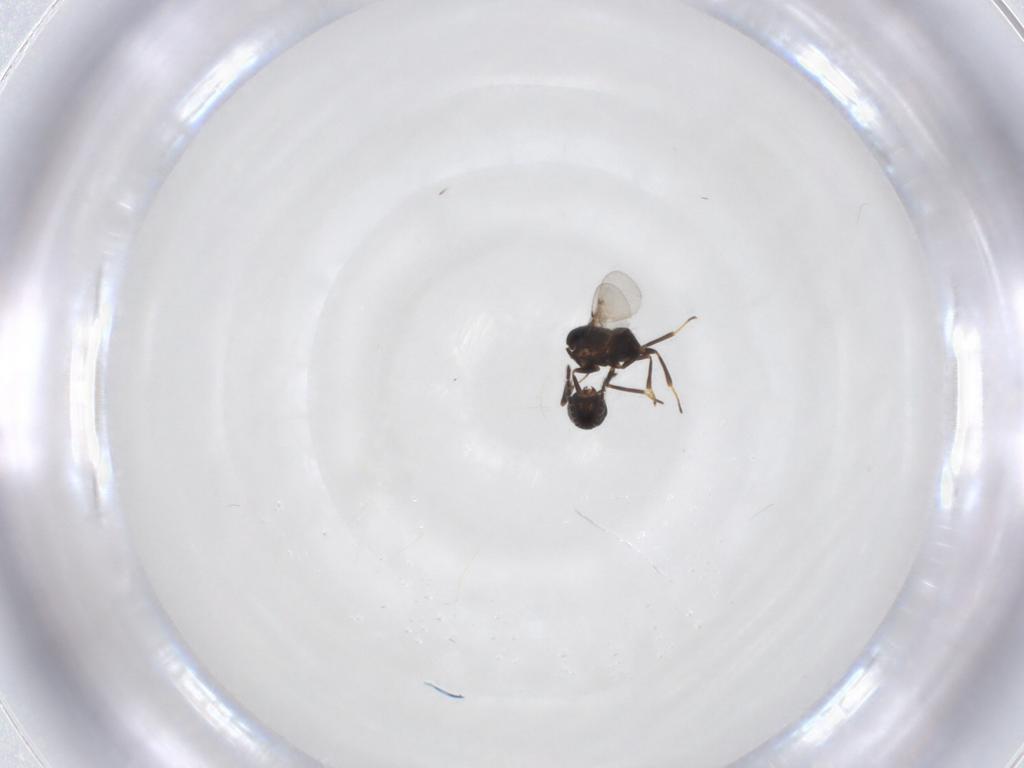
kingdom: Animalia
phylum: Arthropoda
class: Insecta
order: Hymenoptera
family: Encyrtidae
